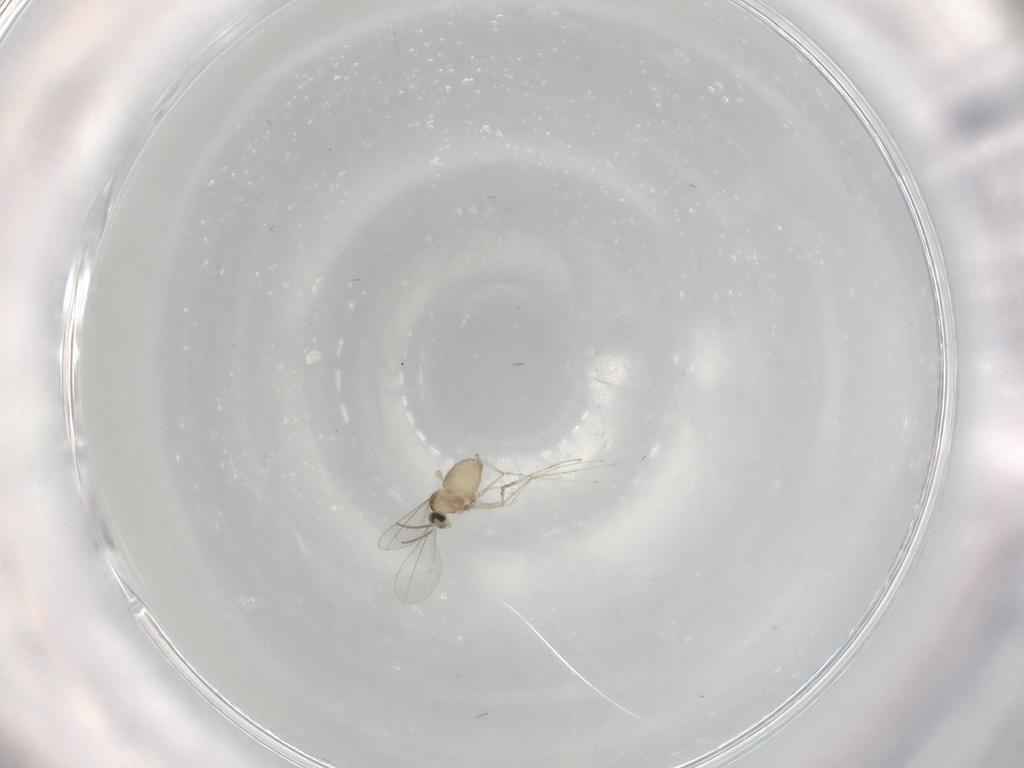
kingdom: Animalia
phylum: Arthropoda
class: Insecta
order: Diptera
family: Cecidomyiidae
